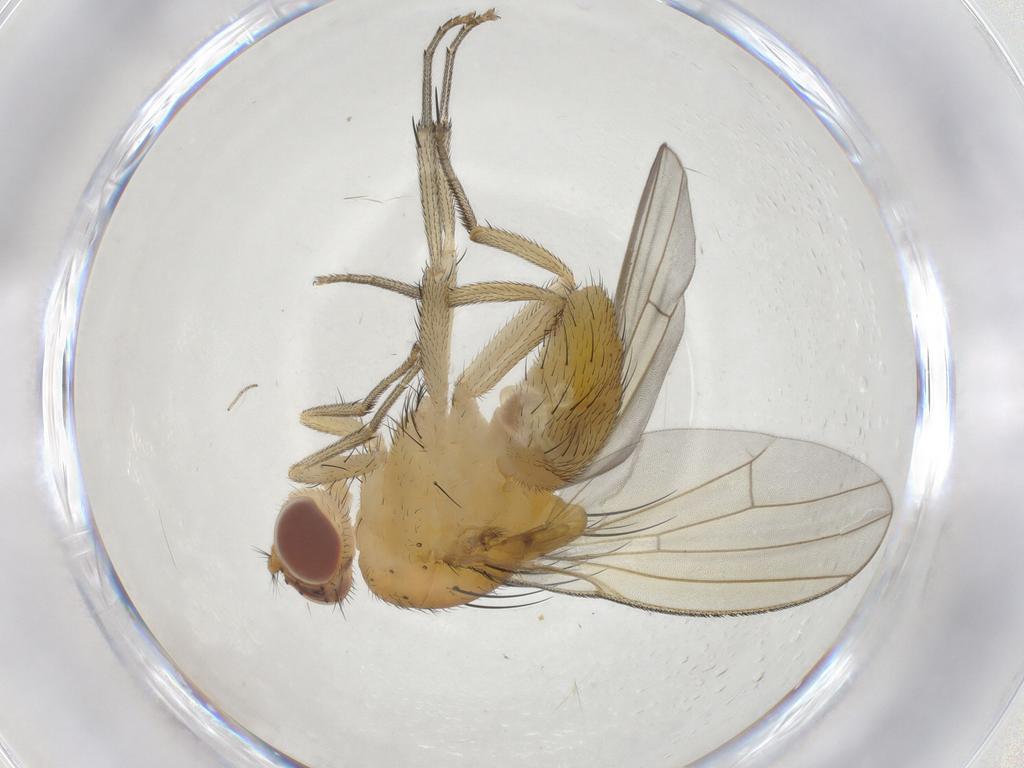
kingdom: Animalia
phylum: Arthropoda
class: Insecta
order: Diptera
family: Ceratopogonidae
